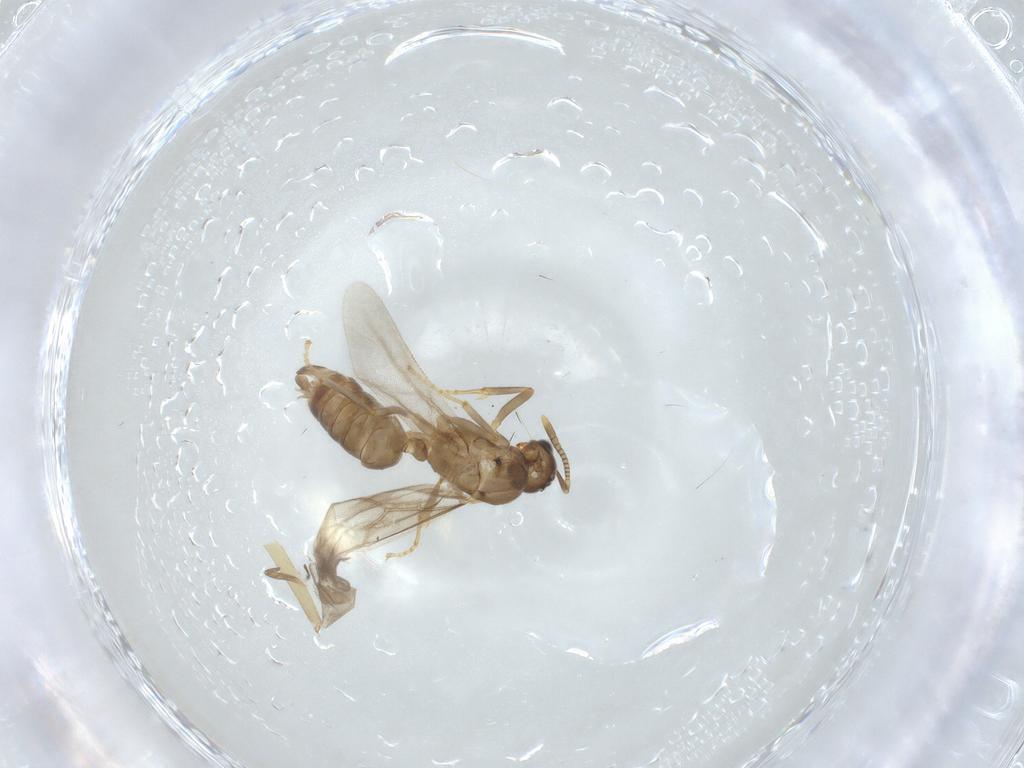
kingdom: Animalia
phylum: Arthropoda
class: Insecta
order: Hymenoptera
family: Formicidae
